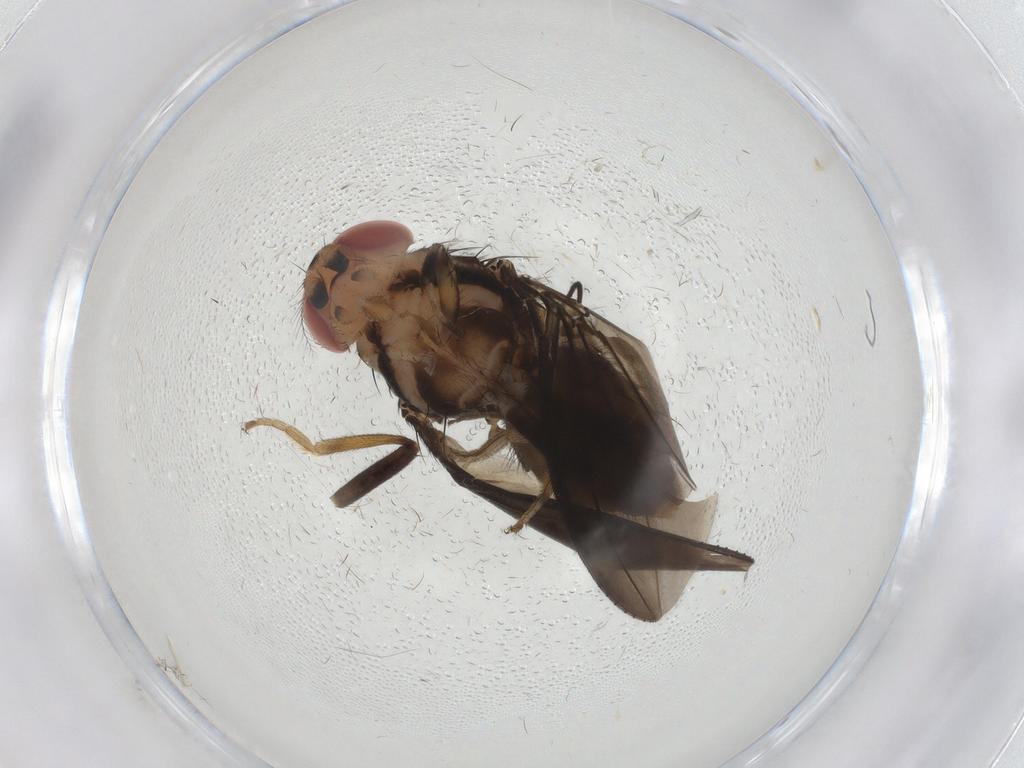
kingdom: Animalia
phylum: Arthropoda
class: Insecta
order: Diptera
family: Drosophilidae
